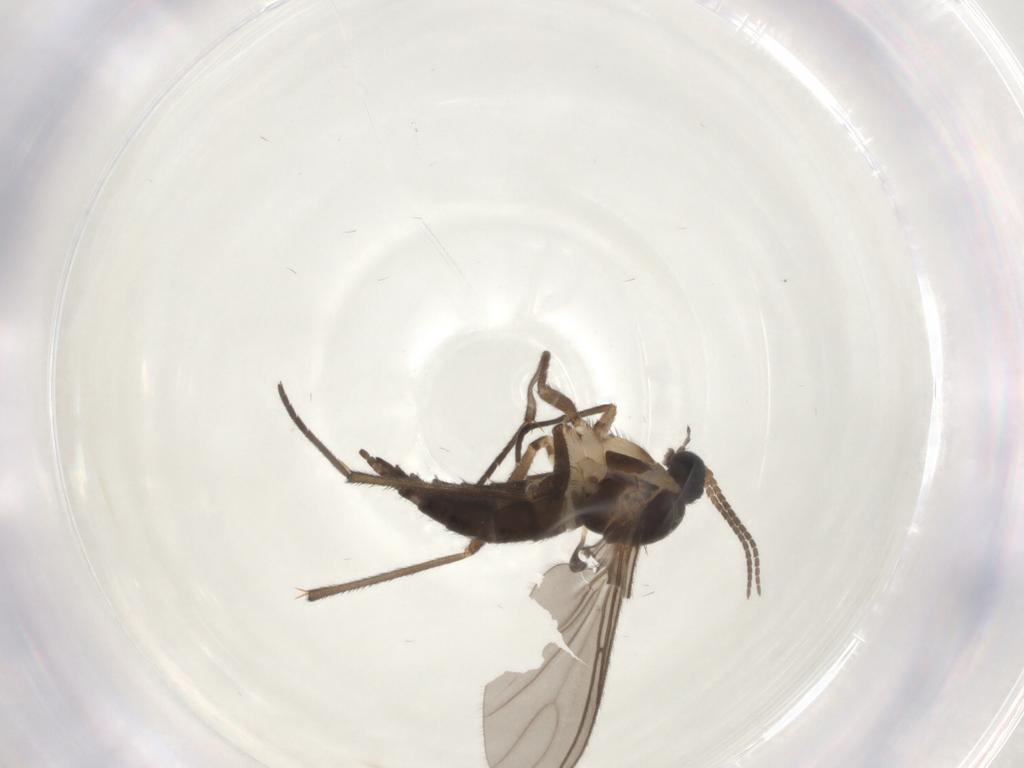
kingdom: Animalia
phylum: Arthropoda
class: Insecta
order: Diptera
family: Sciaridae
